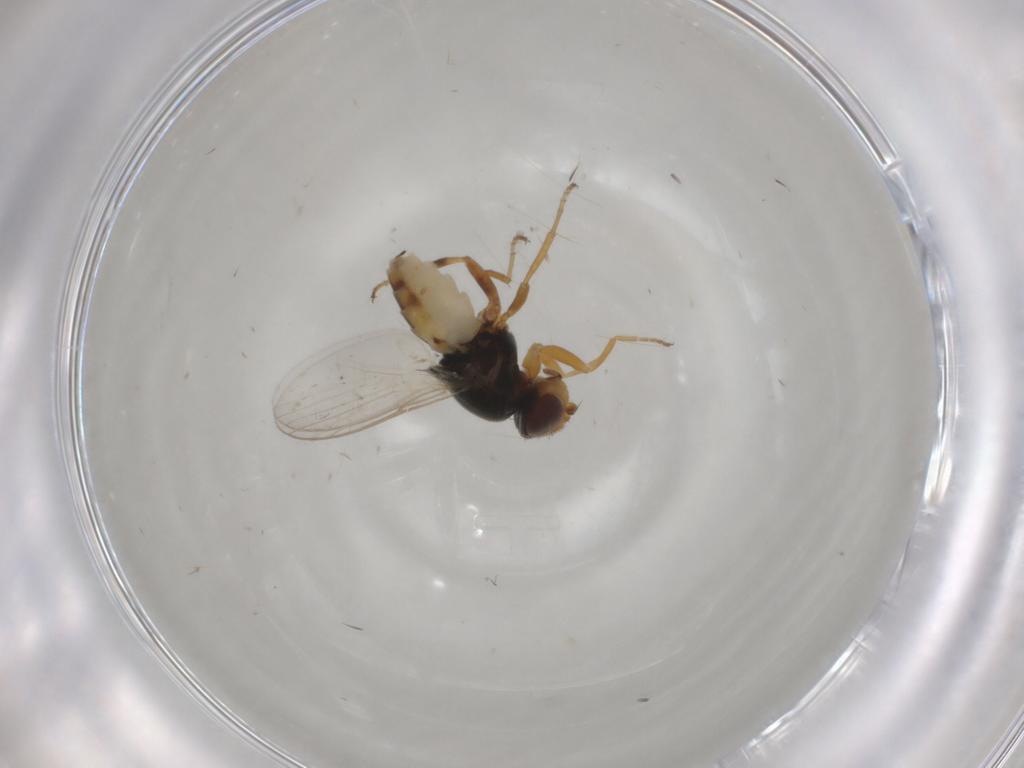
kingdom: Animalia
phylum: Arthropoda
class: Insecta
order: Diptera
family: Chloropidae
